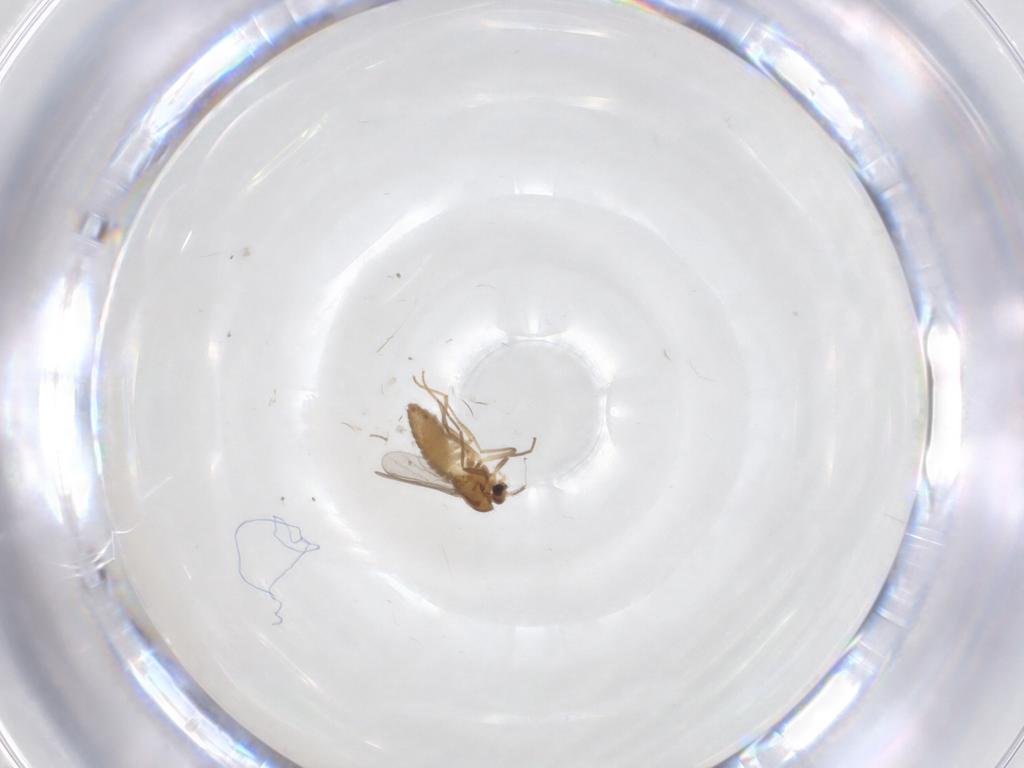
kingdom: Animalia
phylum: Arthropoda
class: Insecta
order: Diptera
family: Chironomidae
